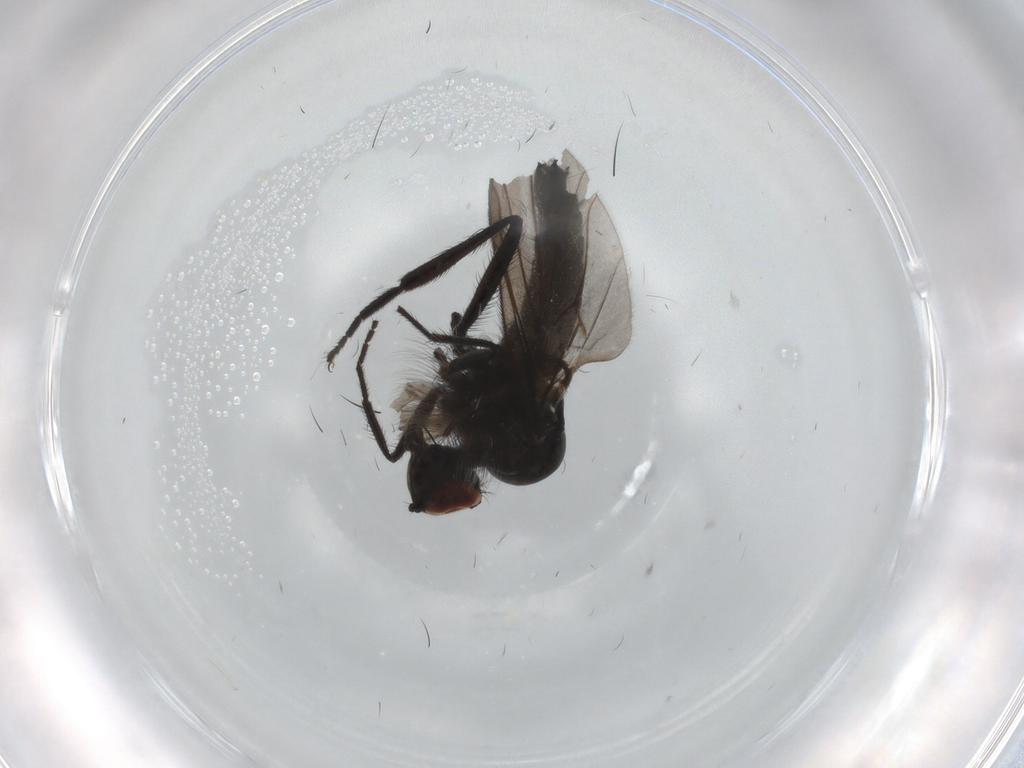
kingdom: Animalia
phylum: Arthropoda
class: Insecta
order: Diptera
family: Hybotidae
